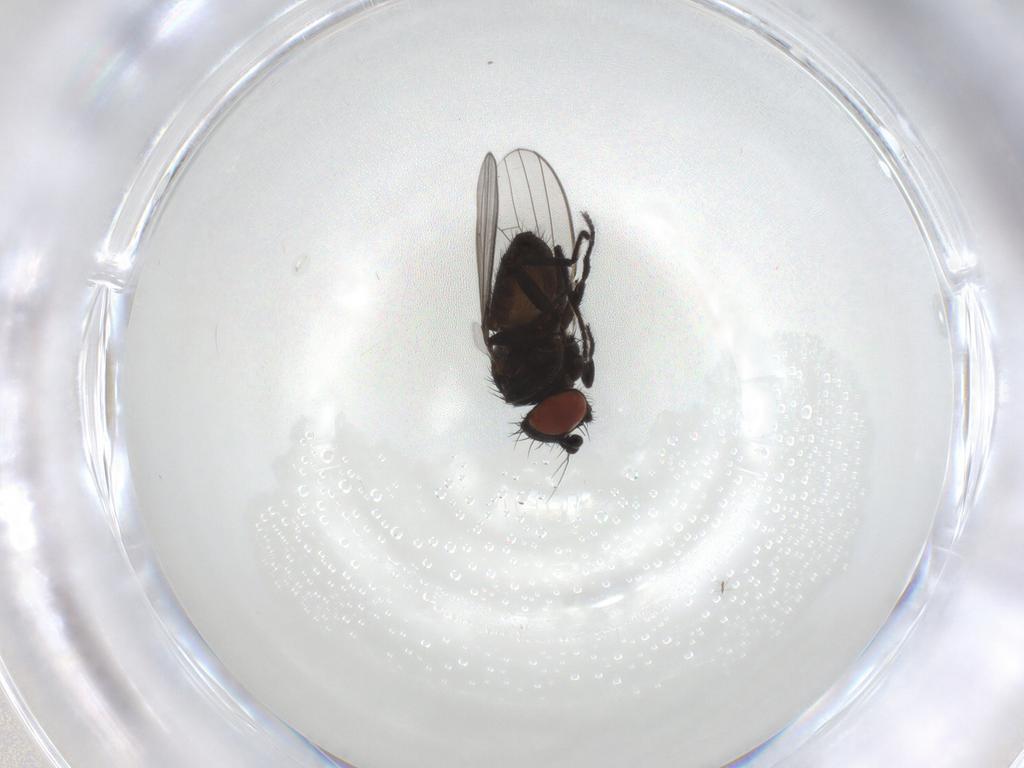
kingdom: Animalia
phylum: Arthropoda
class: Insecta
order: Diptera
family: Milichiidae
